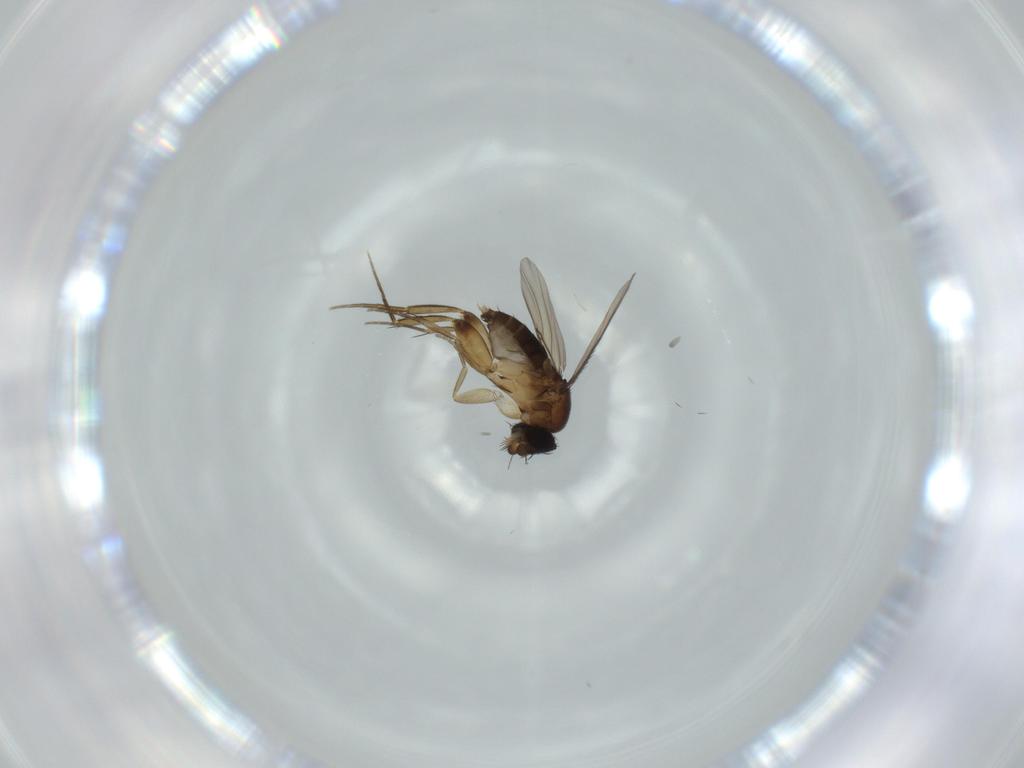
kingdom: Animalia
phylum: Arthropoda
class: Insecta
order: Diptera
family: Phoridae
